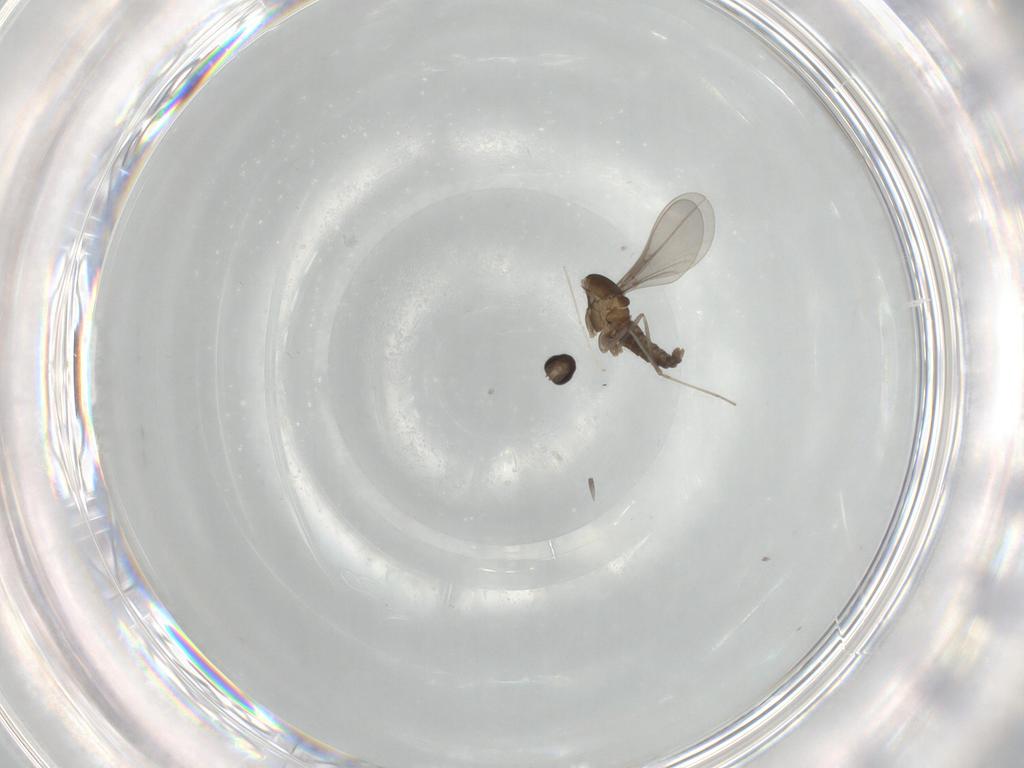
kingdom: Animalia
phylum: Arthropoda
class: Insecta
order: Diptera
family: Cecidomyiidae
